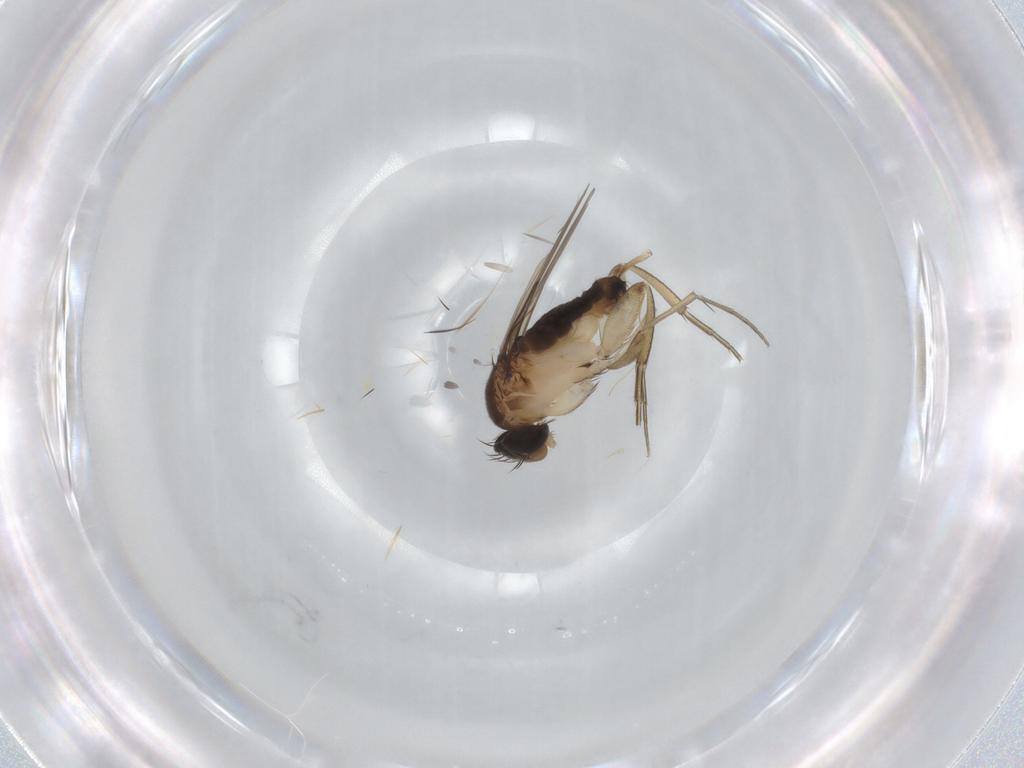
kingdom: Animalia
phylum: Arthropoda
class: Insecta
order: Diptera
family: Phoridae
